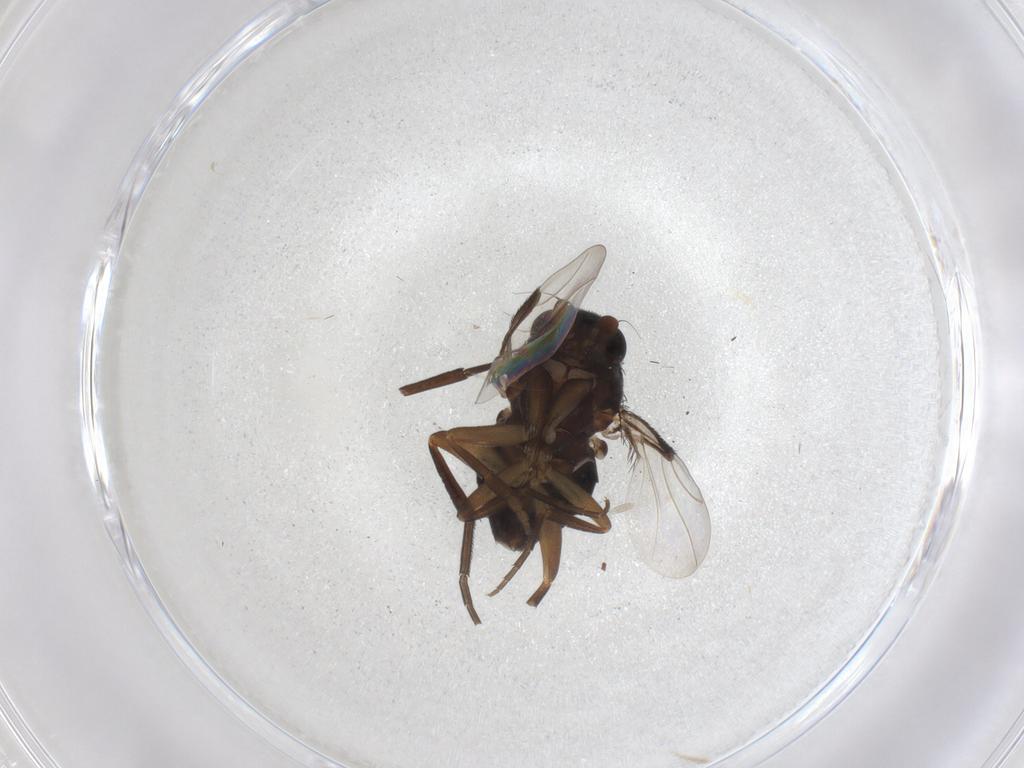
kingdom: Animalia
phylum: Arthropoda
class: Insecta
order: Diptera
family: Phoridae
